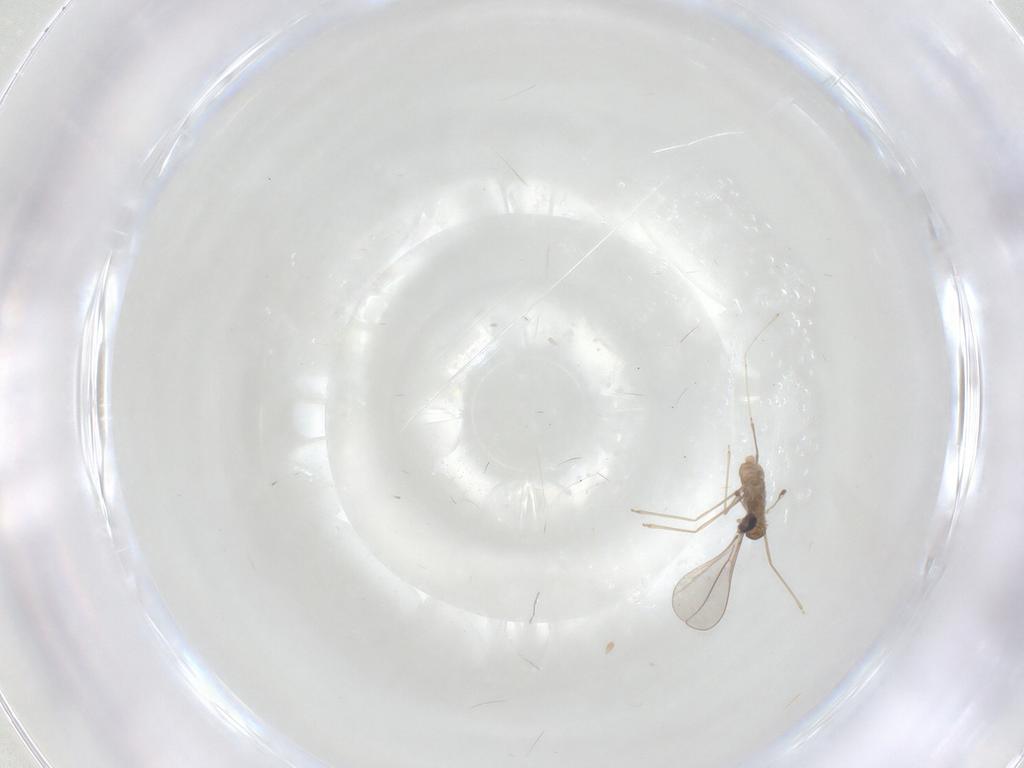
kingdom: Animalia
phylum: Arthropoda
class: Insecta
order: Diptera
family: Cecidomyiidae
